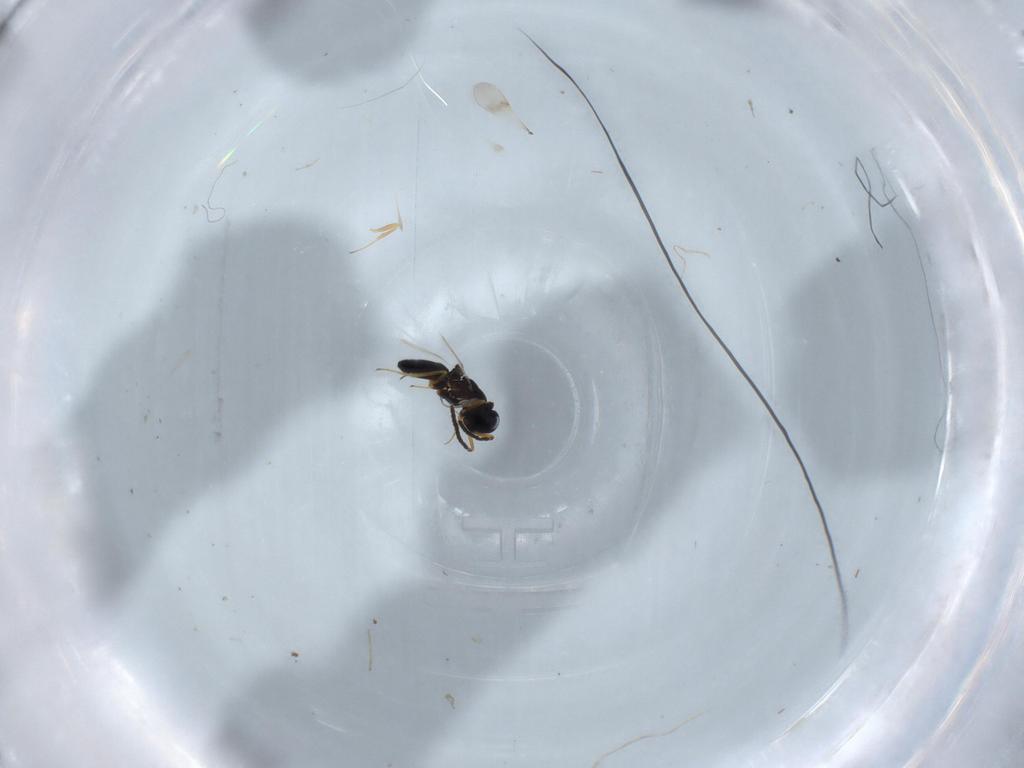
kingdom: Animalia
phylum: Arthropoda
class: Insecta
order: Hymenoptera
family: Scelionidae
